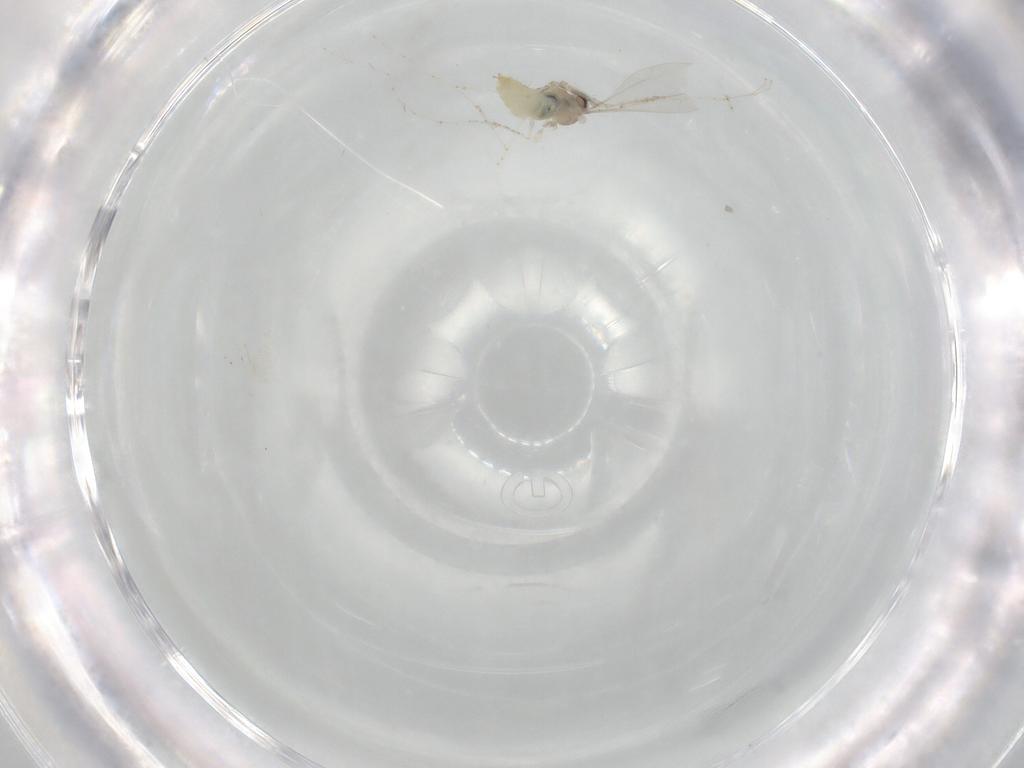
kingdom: Animalia
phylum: Arthropoda
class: Insecta
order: Diptera
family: Cecidomyiidae
